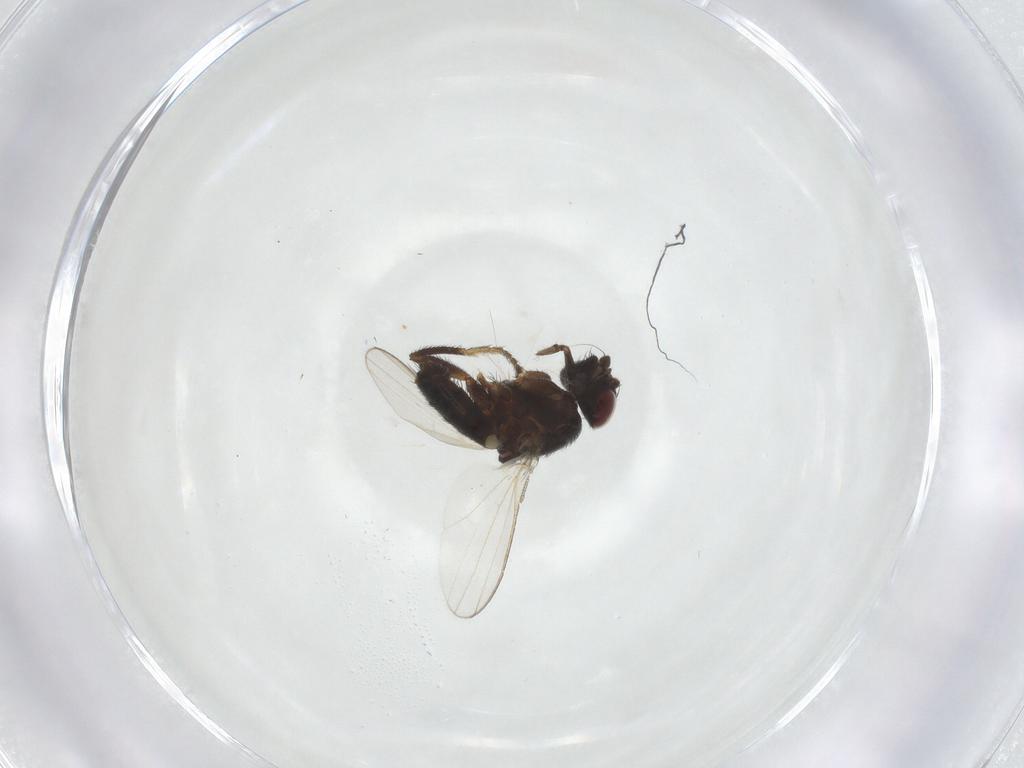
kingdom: Animalia
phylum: Arthropoda
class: Insecta
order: Diptera
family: Milichiidae
